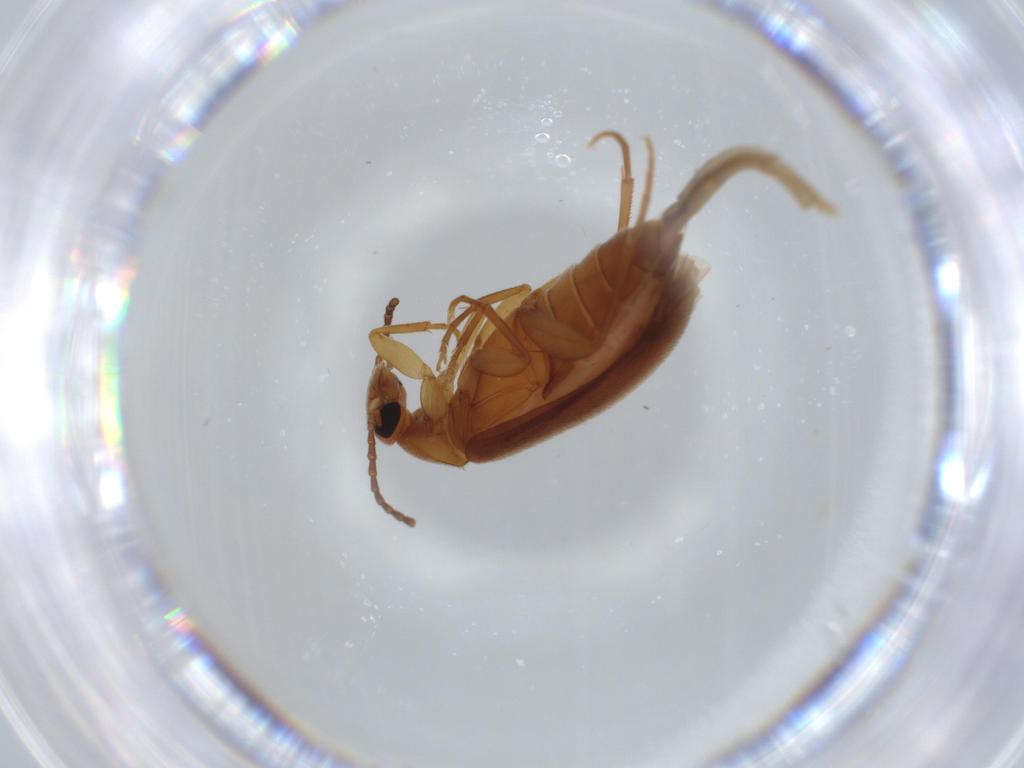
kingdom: Animalia
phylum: Arthropoda
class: Insecta
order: Coleoptera
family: Scraptiidae
